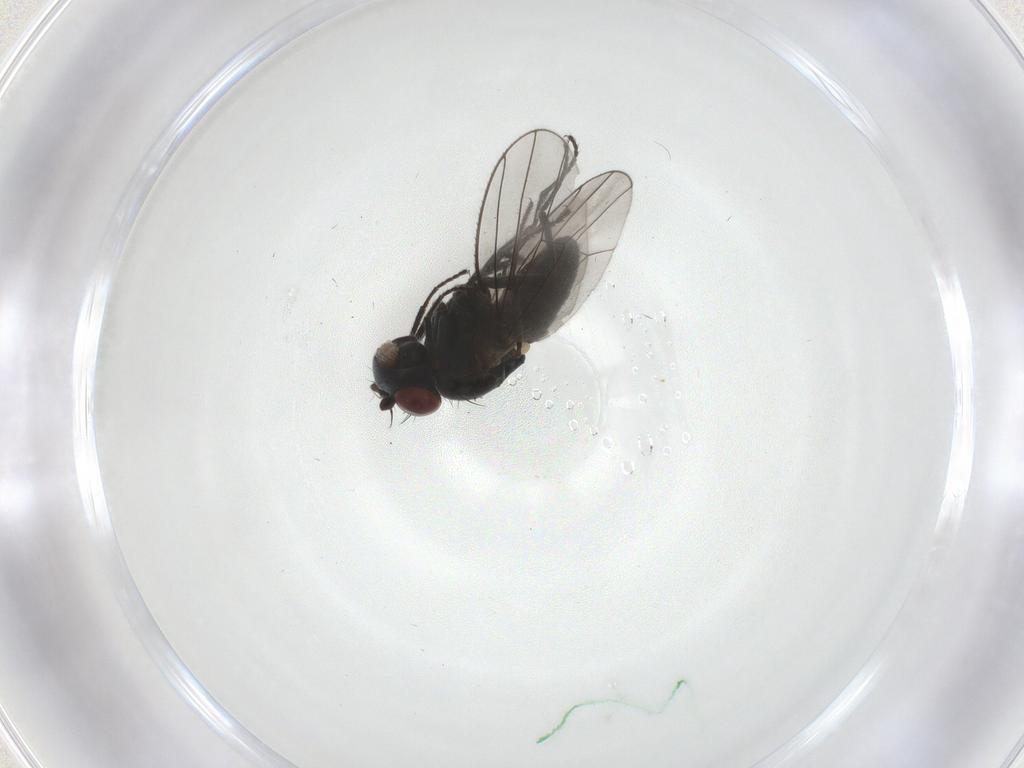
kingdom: Animalia
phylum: Arthropoda
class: Insecta
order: Diptera
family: Ephydridae
